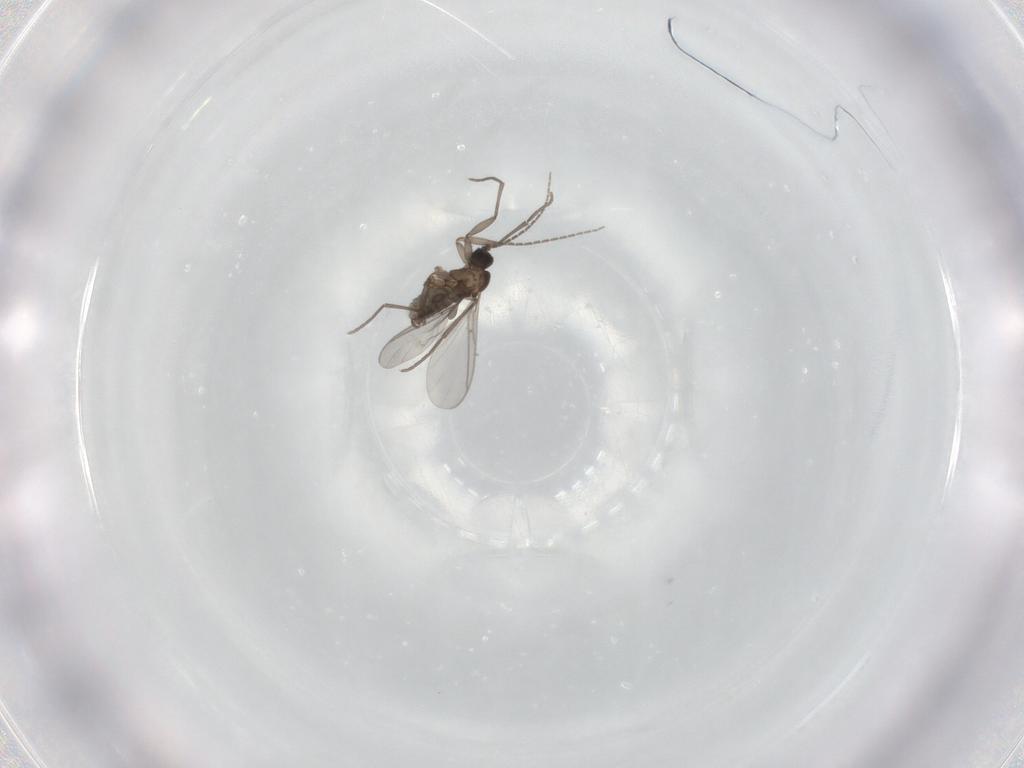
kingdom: Animalia
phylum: Arthropoda
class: Insecta
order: Diptera
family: Sciaridae
